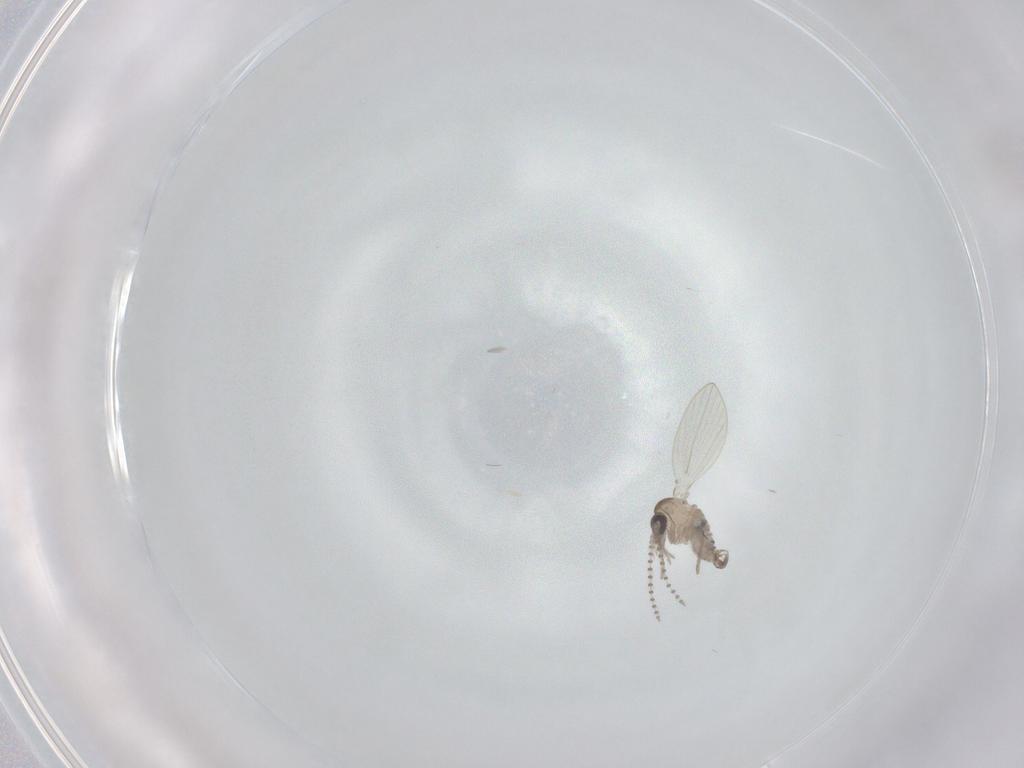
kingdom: Animalia
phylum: Arthropoda
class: Insecta
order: Diptera
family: Psychodidae
